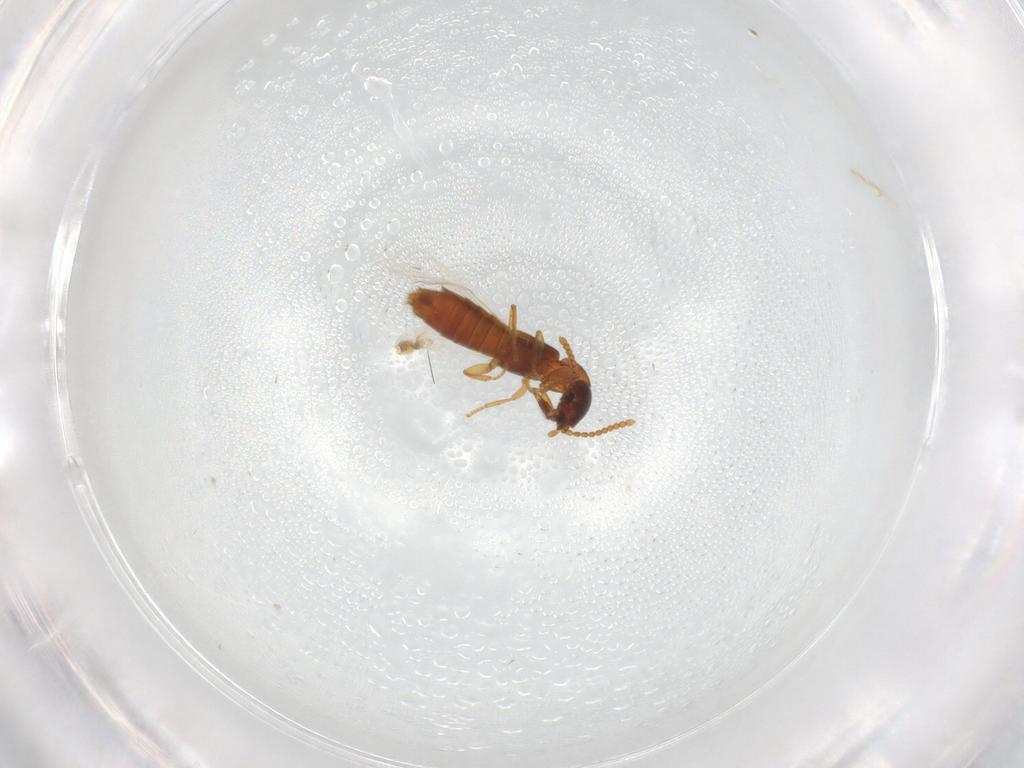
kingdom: Animalia
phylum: Arthropoda
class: Insecta
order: Coleoptera
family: Staphylinidae
